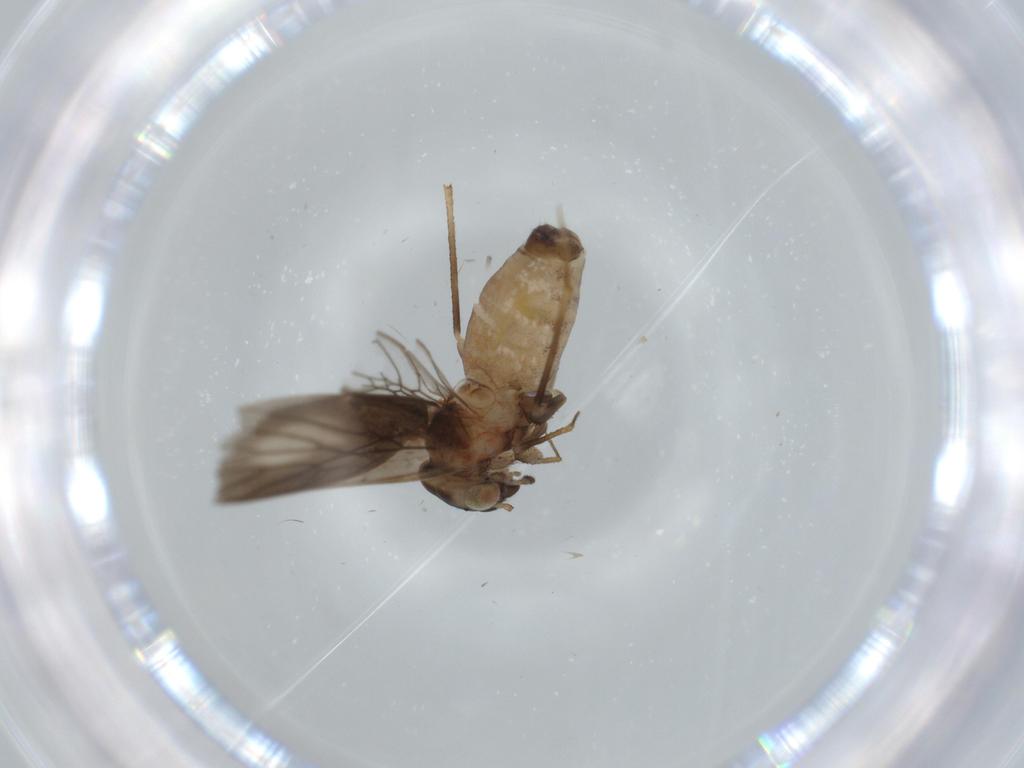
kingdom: Animalia
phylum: Arthropoda
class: Insecta
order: Psocodea
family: Lepidopsocidae
